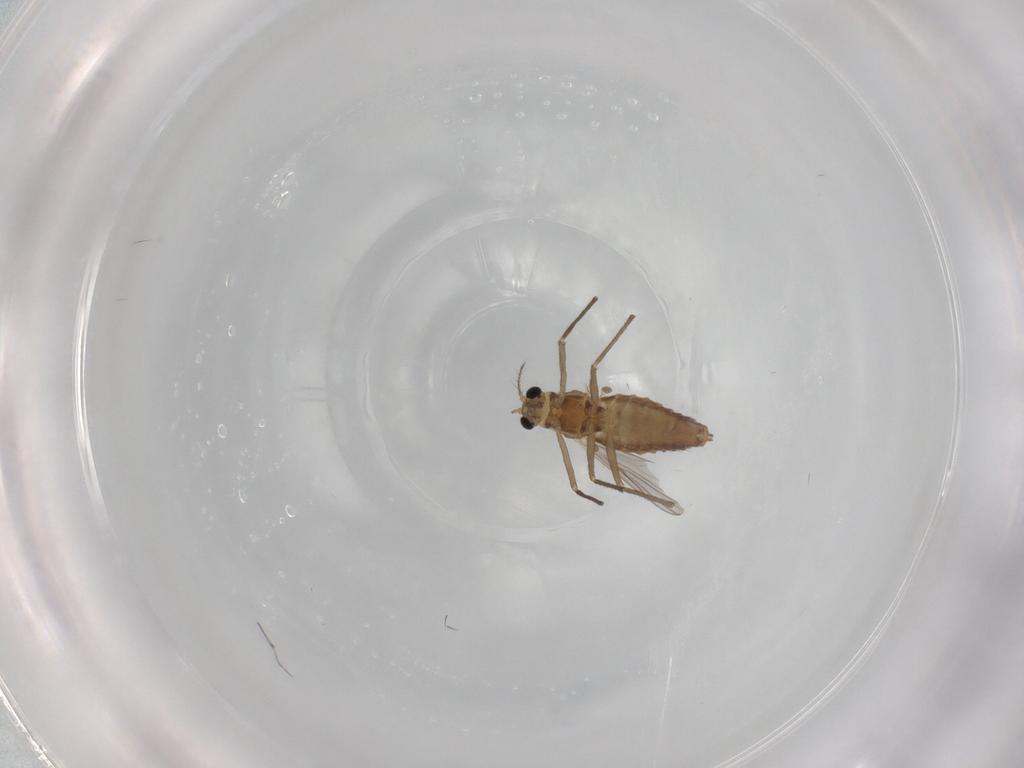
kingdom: Animalia
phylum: Arthropoda
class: Insecta
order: Diptera
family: Chironomidae
